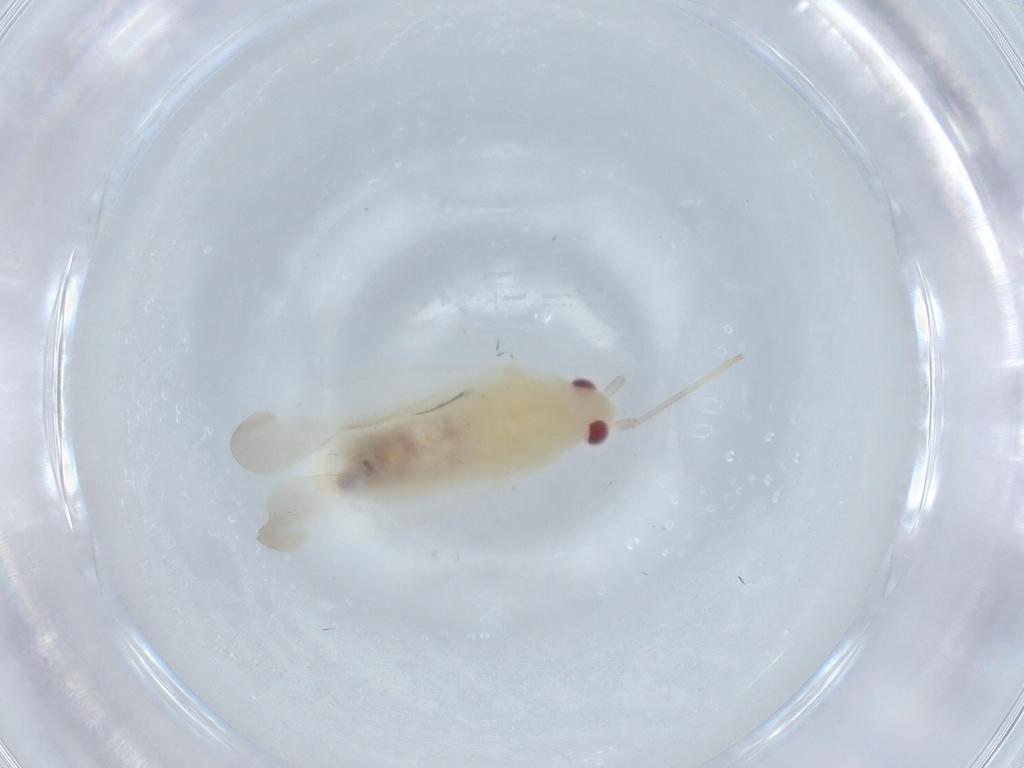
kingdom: Animalia
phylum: Arthropoda
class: Insecta
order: Hemiptera
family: Miridae
